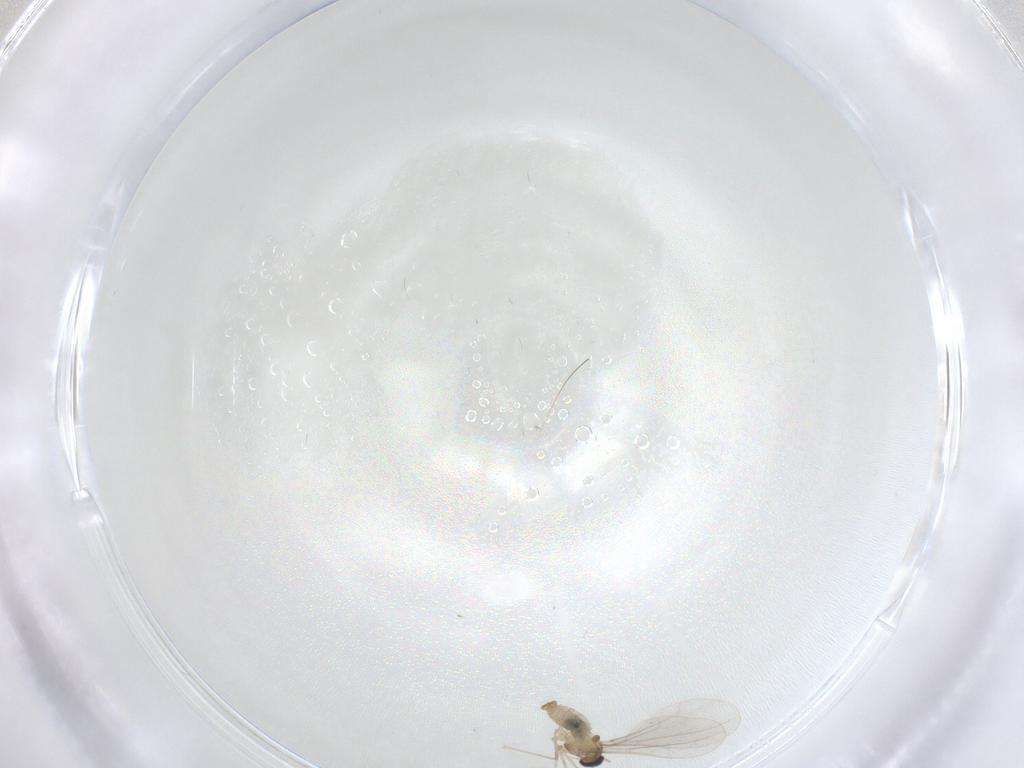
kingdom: Animalia
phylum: Arthropoda
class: Insecta
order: Diptera
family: Cecidomyiidae
